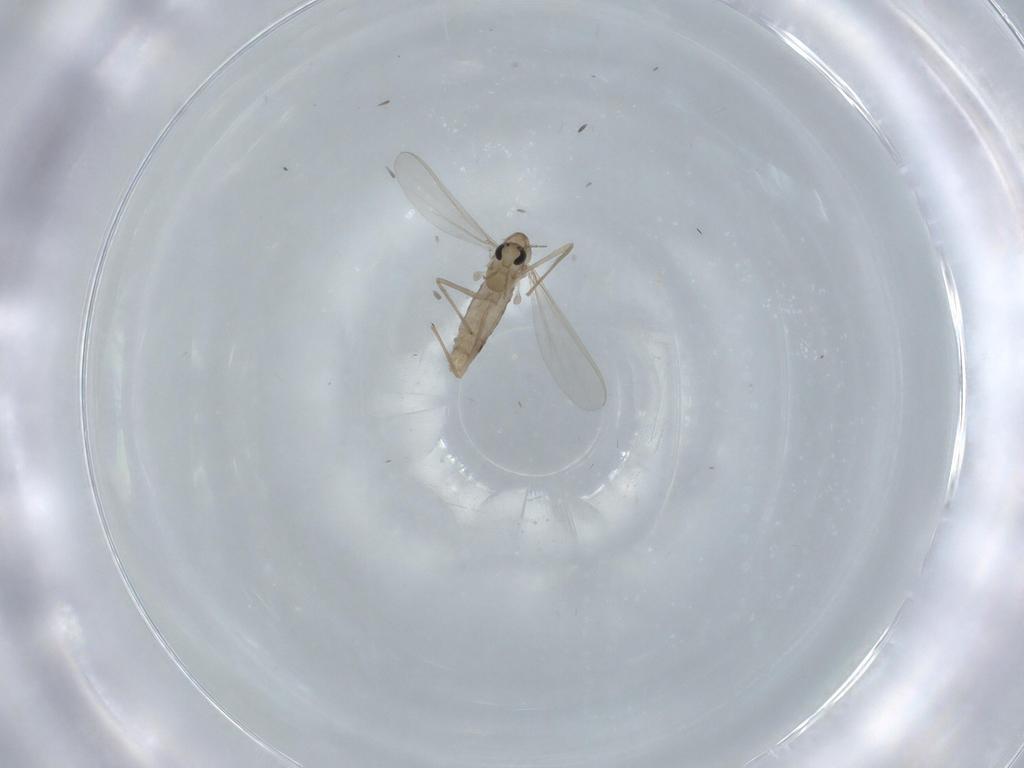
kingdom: Animalia
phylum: Arthropoda
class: Insecta
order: Diptera
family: Chironomidae
